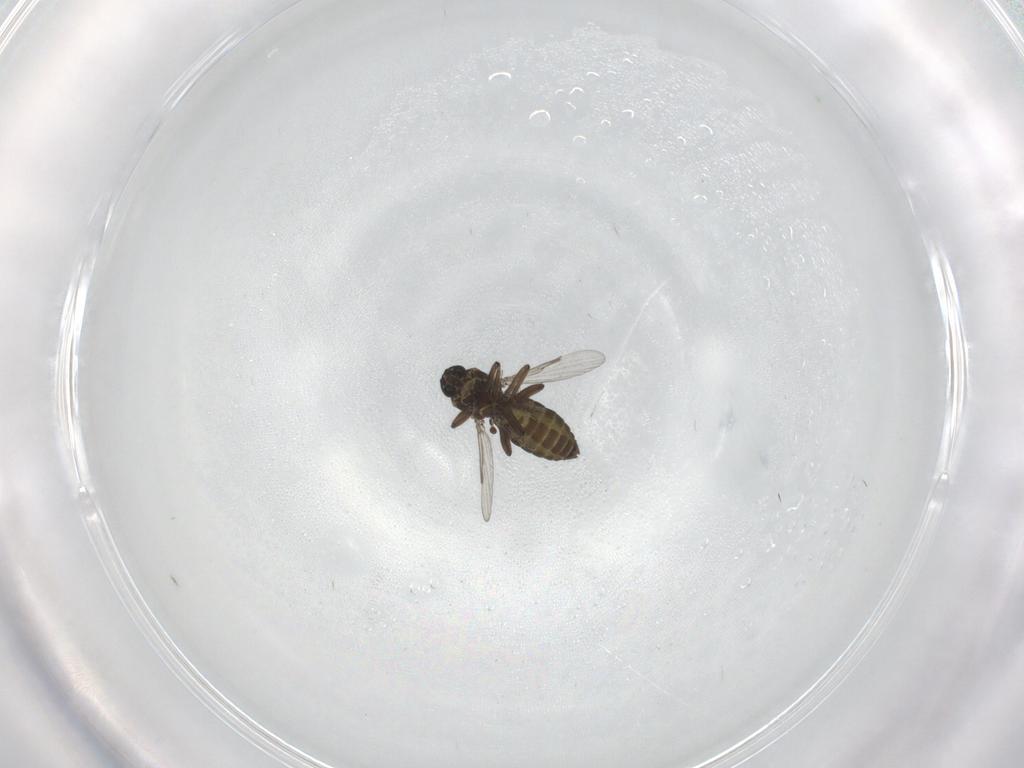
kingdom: Animalia
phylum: Arthropoda
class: Insecta
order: Diptera
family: Ceratopogonidae
